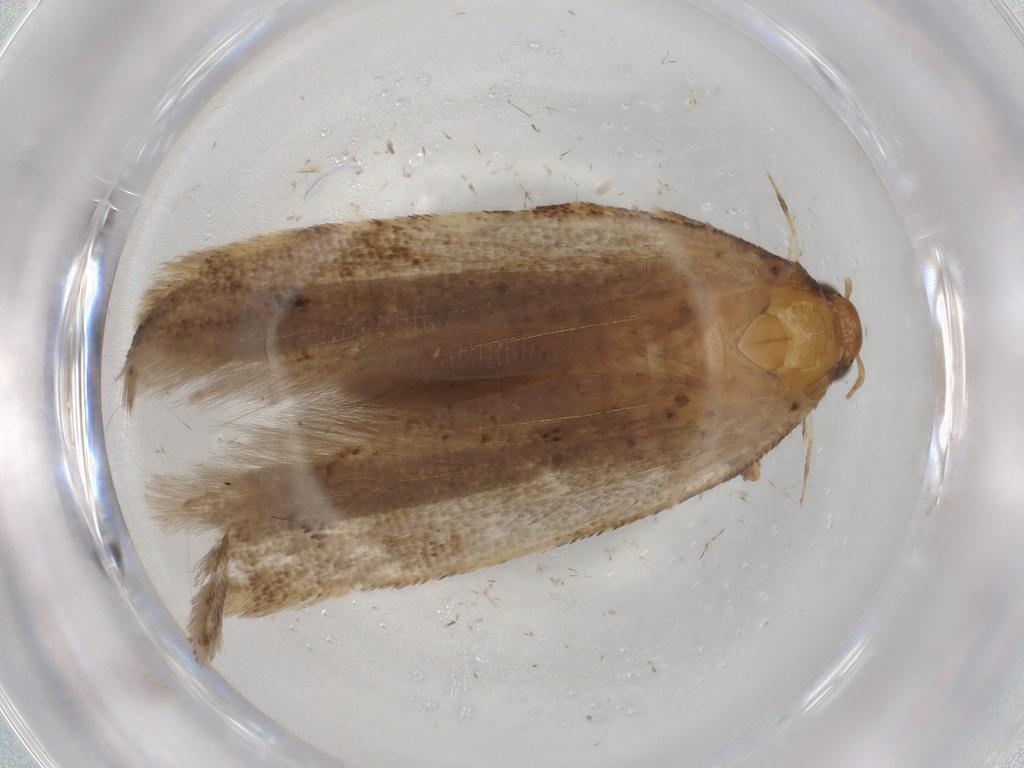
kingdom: Animalia
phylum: Arthropoda
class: Insecta
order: Lepidoptera
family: Gelechiidae
